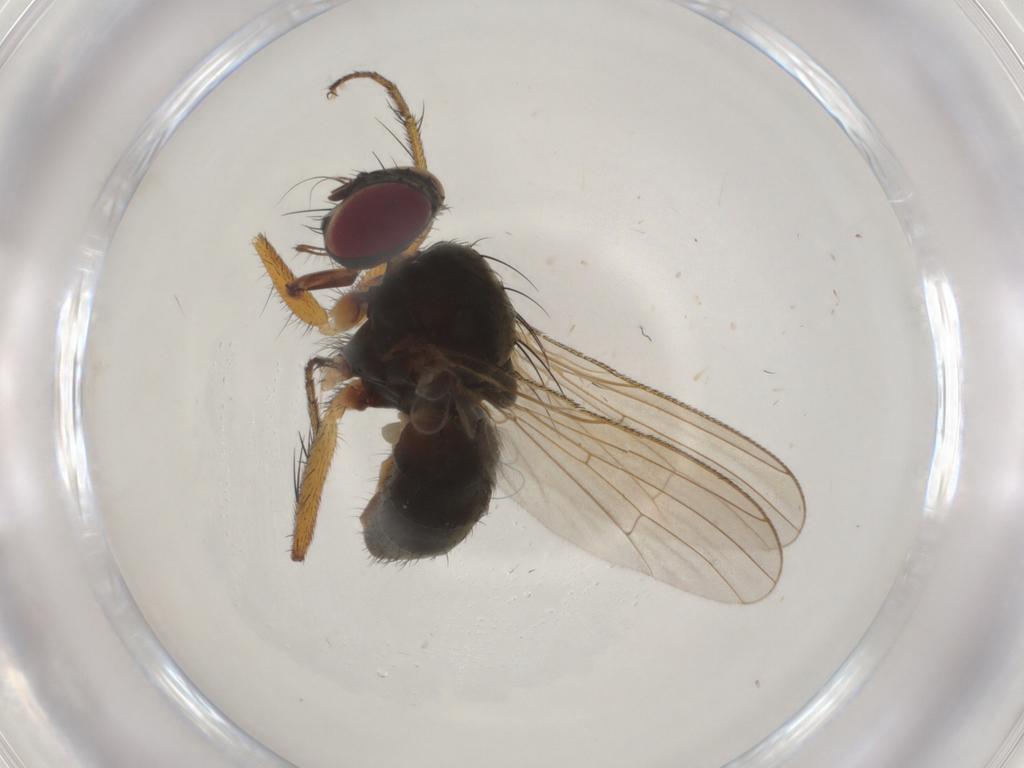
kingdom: Animalia
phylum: Arthropoda
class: Insecta
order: Diptera
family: Muscidae
